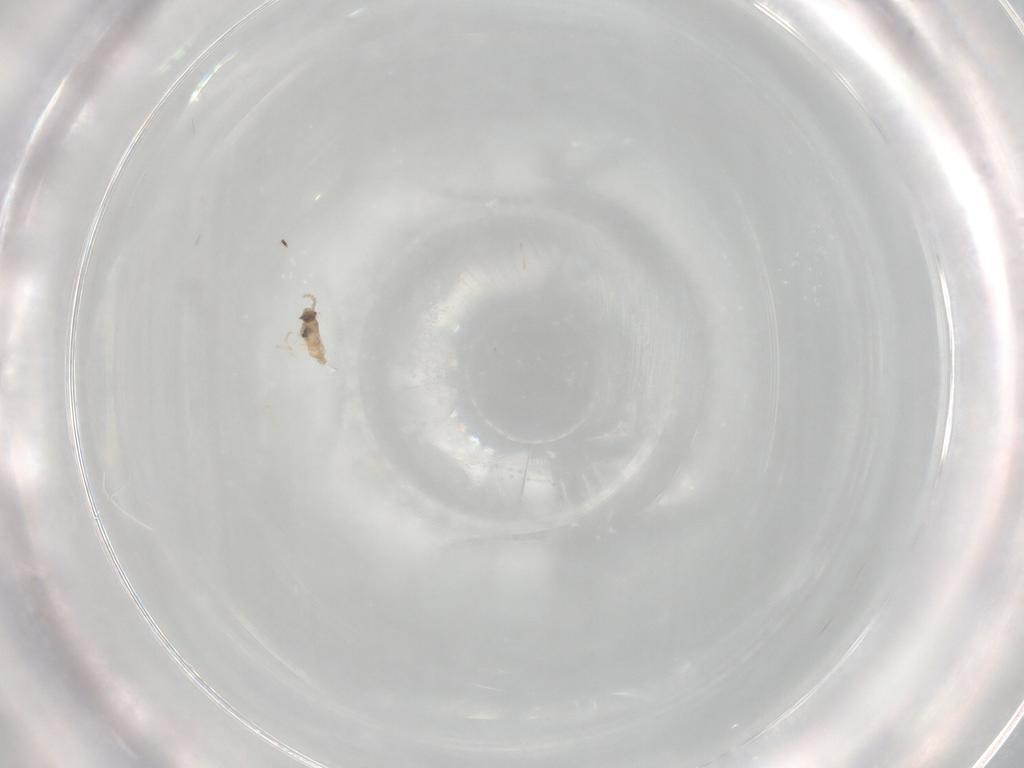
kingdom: Animalia
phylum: Arthropoda
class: Insecta
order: Diptera
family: Cecidomyiidae
